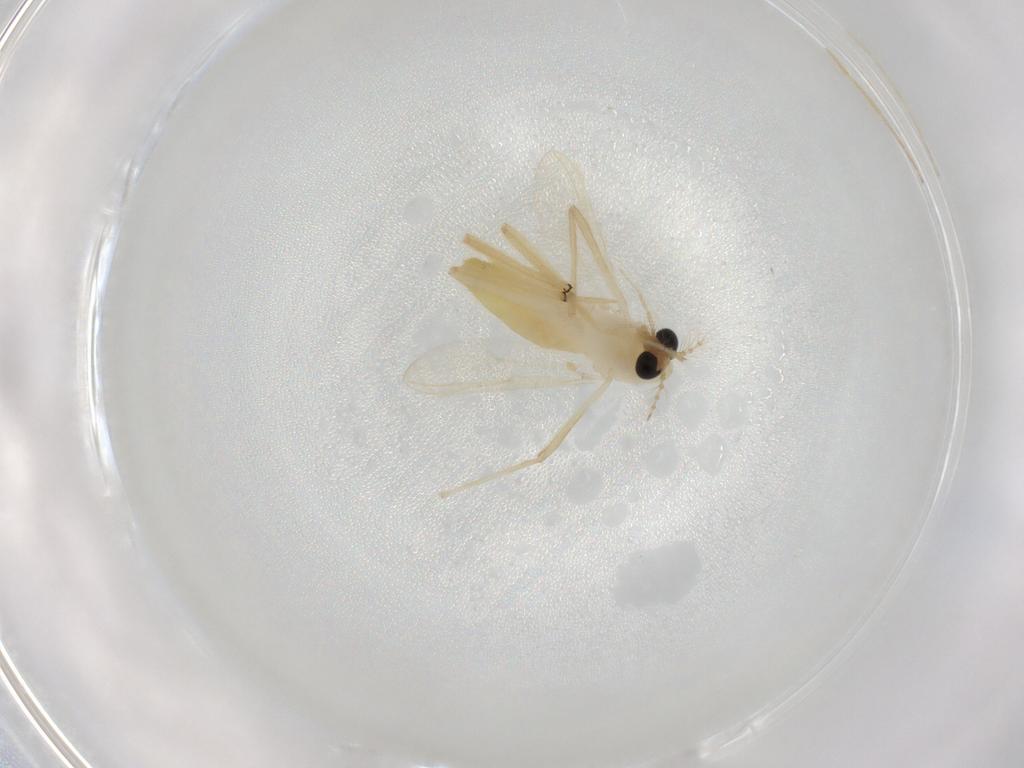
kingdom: Animalia
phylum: Arthropoda
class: Insecta
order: Diptera
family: Chironomidae
